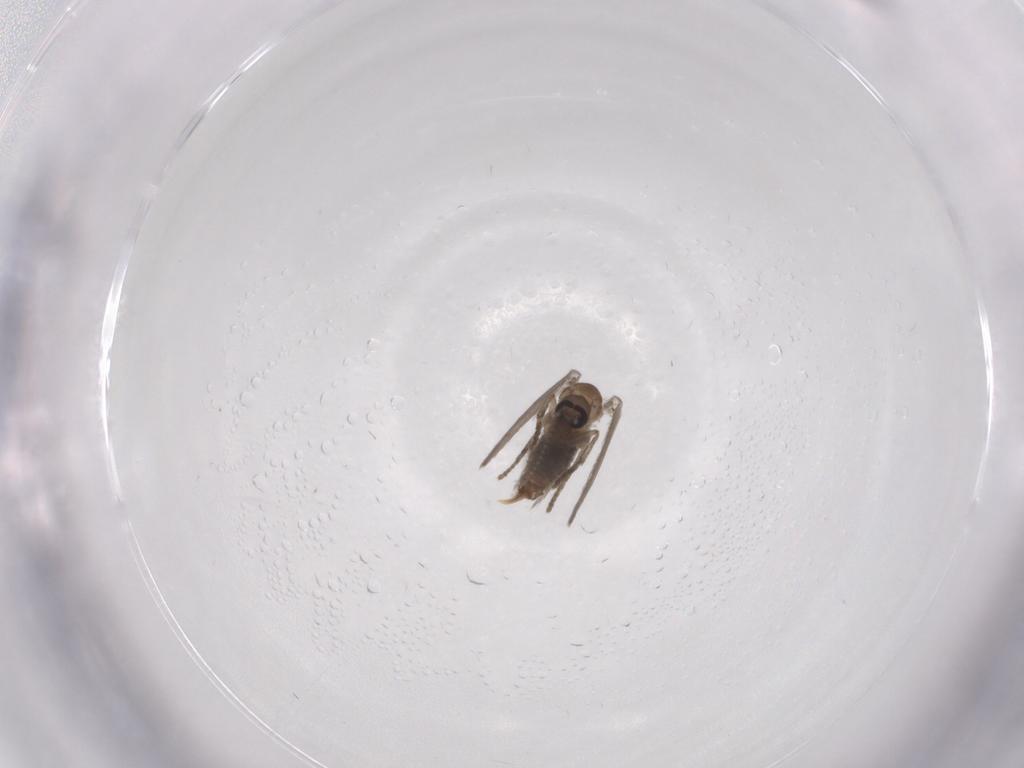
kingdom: Animalia
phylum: Arthropoda
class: Insecta
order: Diptera
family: Psychodidae
